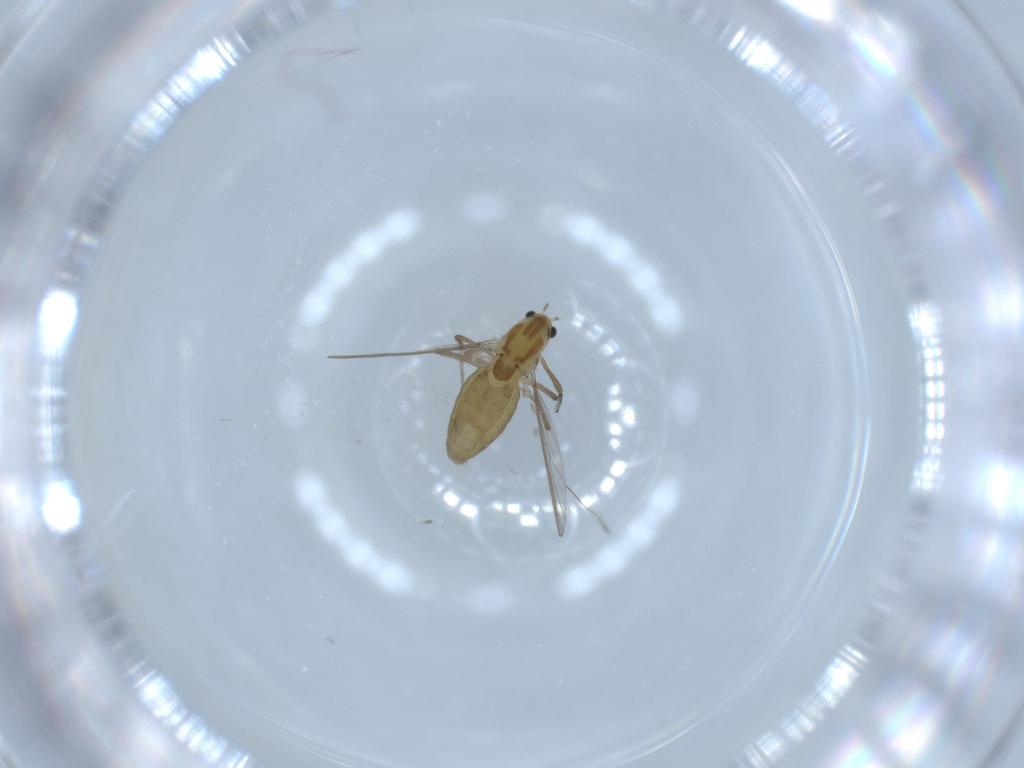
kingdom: Animalia
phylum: Arthropoda
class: Insecta
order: Diptera
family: Chironomidae
